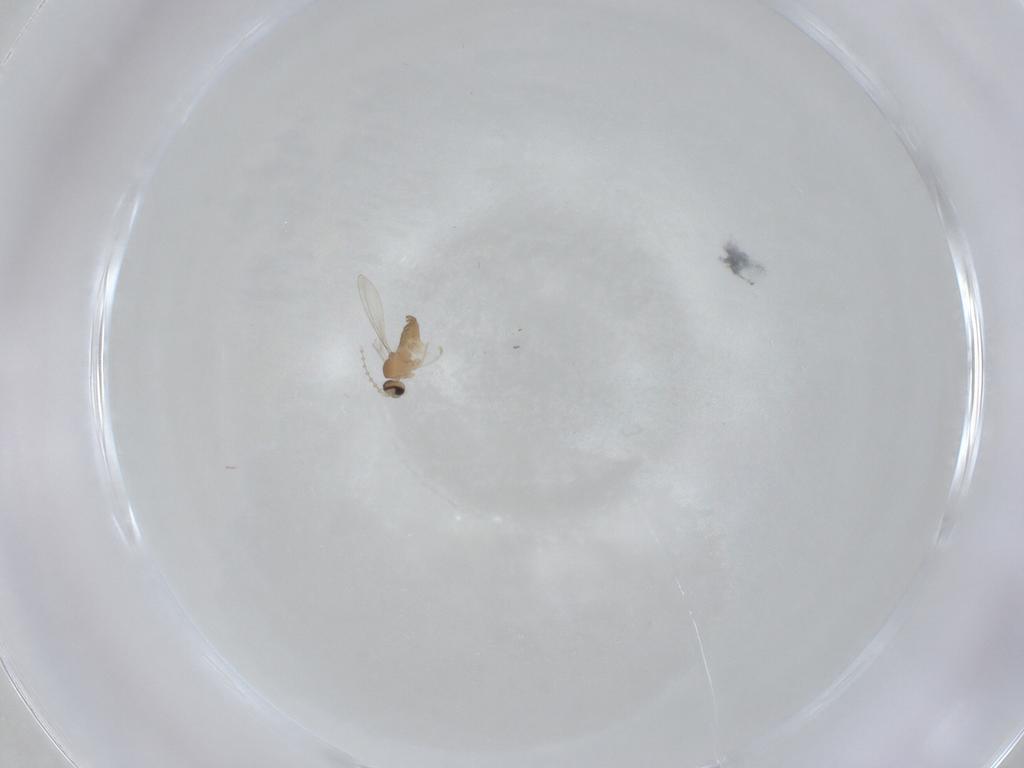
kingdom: Animalia
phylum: Arthropoda
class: Insecta
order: Diptera
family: Cecidomyiidae
